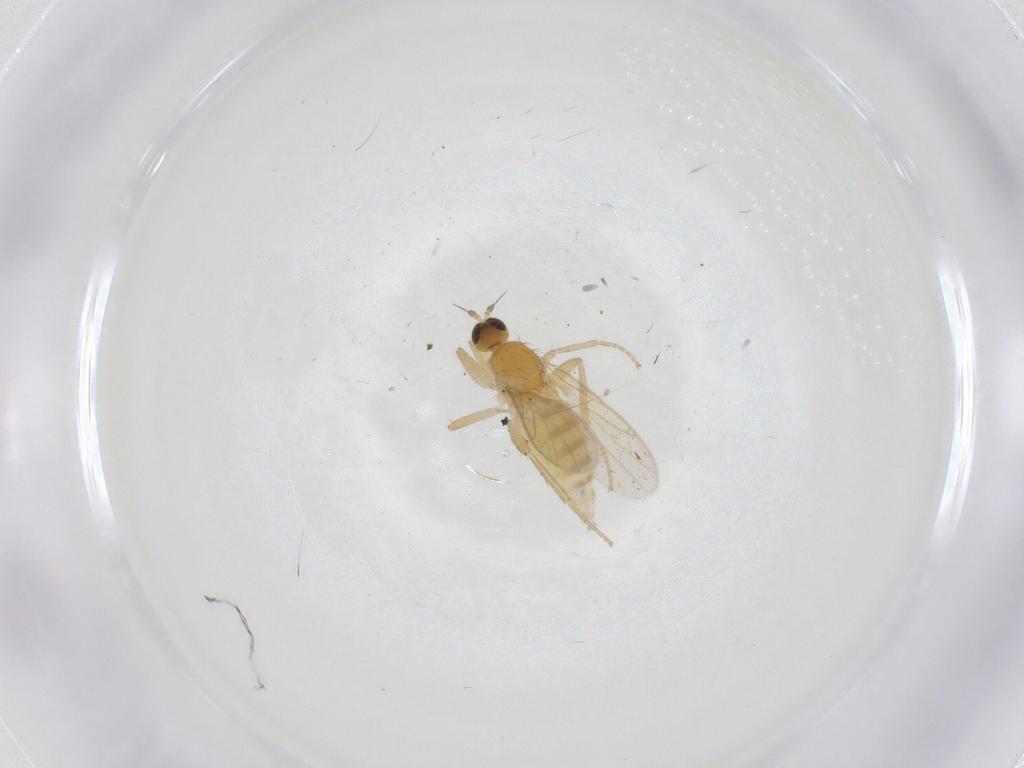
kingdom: Animalia
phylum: Arthropoda
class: Insecta
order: Diptera
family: Hybotidae
